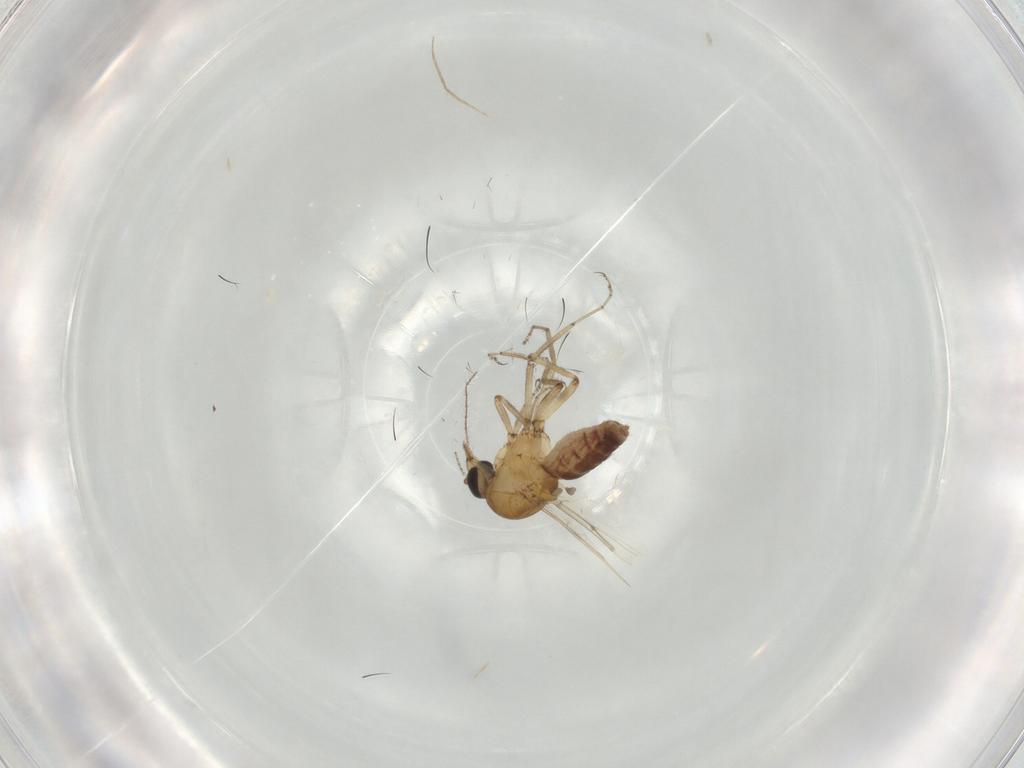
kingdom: Animalia
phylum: Arthropoda
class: Insecta
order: Diptera
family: Ceratopogonidae
